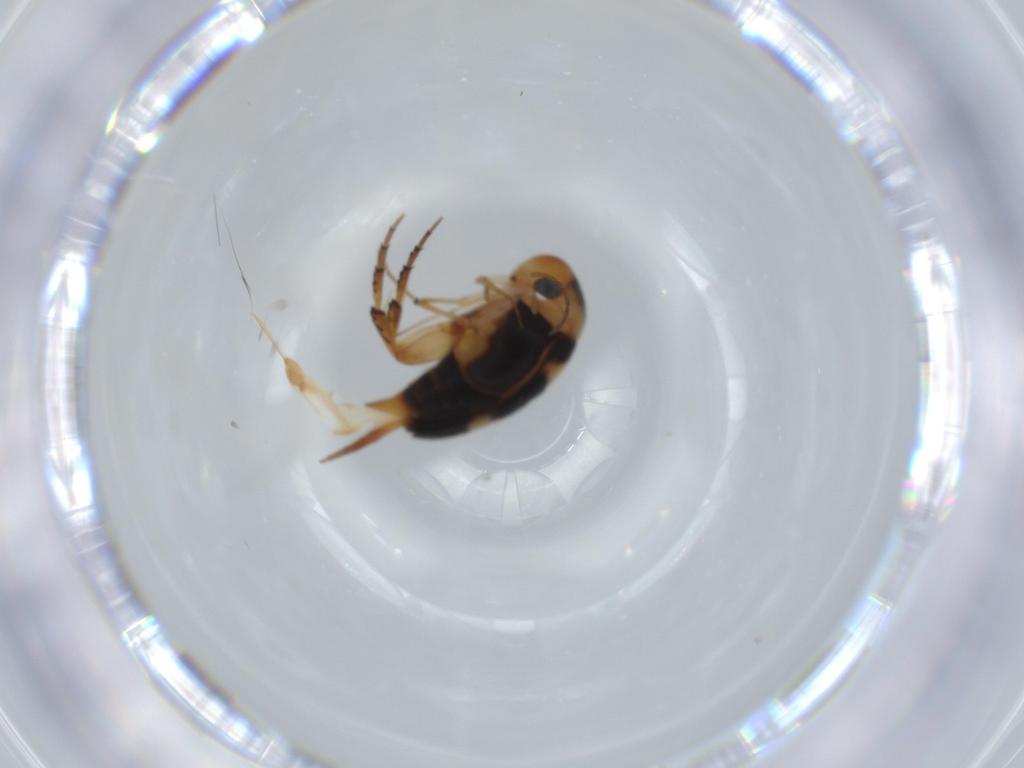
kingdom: Animalia
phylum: Arthropoda
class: Insecta
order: Coleoptera
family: Mordellidae
